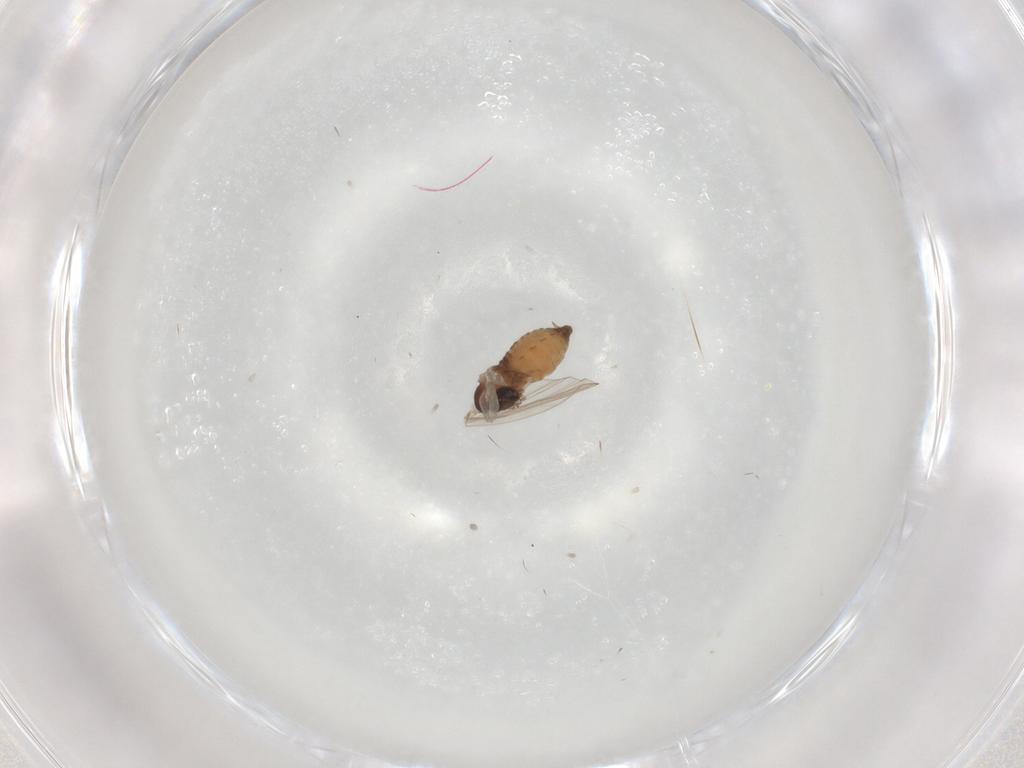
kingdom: Animalia
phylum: Arthropoda
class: Insecta
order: Diptera
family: Psychodidae
